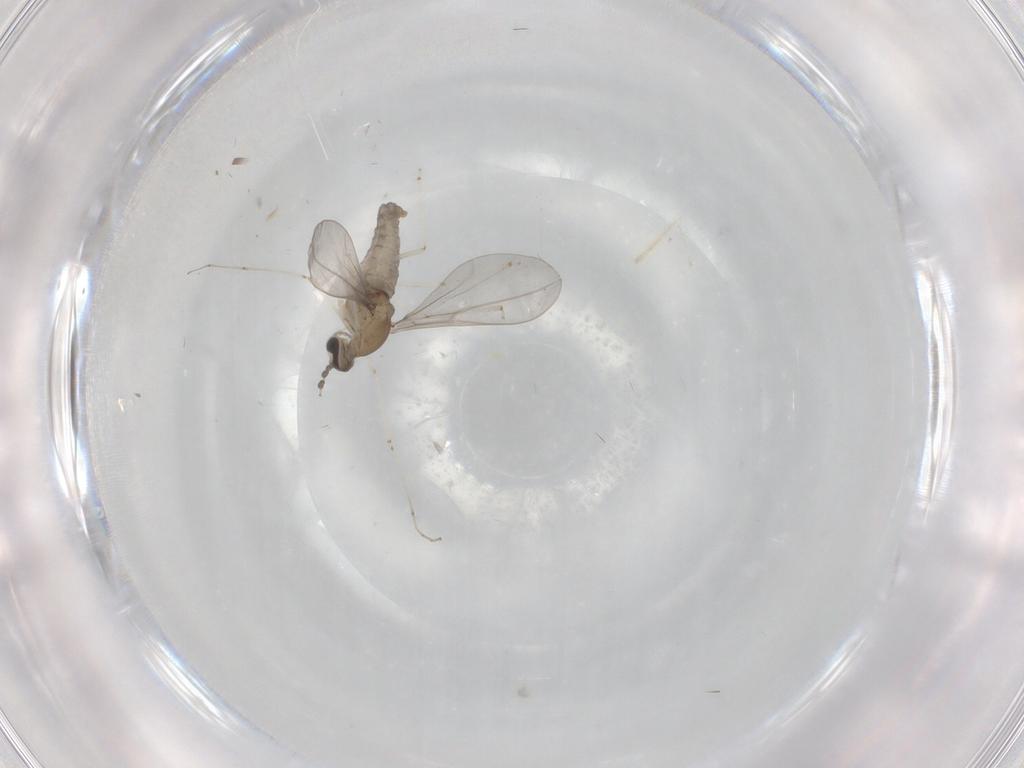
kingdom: Animalia
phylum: Arthropoda
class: Insecta
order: Diptera
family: Cecidomyiidae
